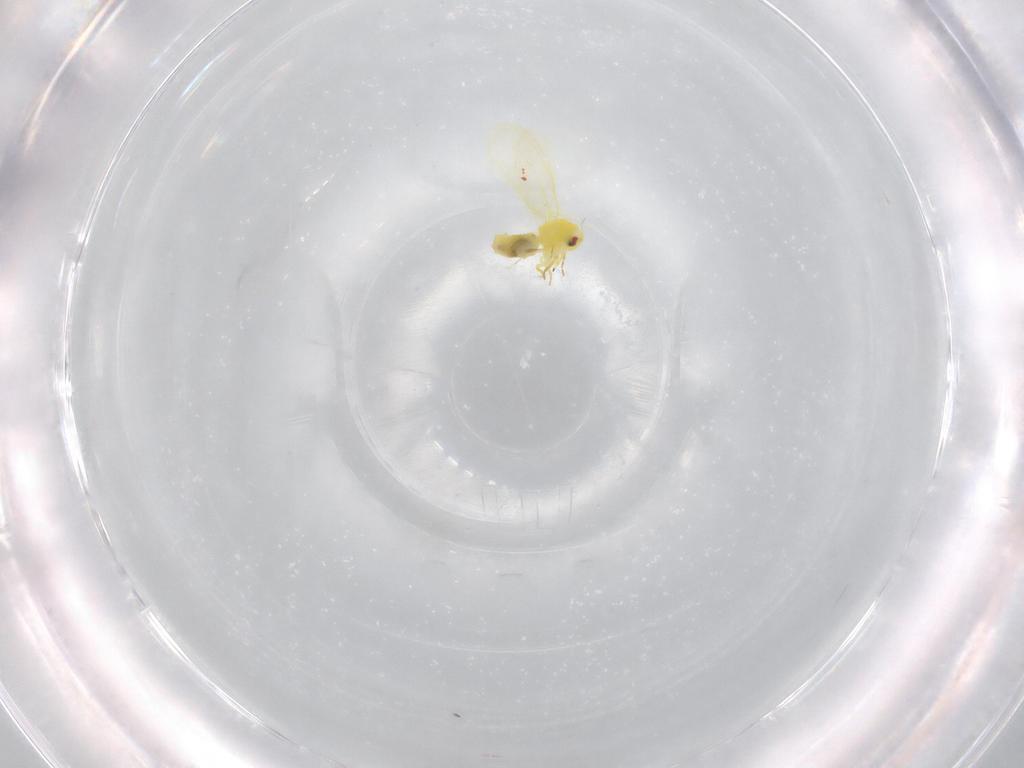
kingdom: Animalia
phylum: Arthropoda
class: Insecta
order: Hemiptera
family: Aleyrodidae
